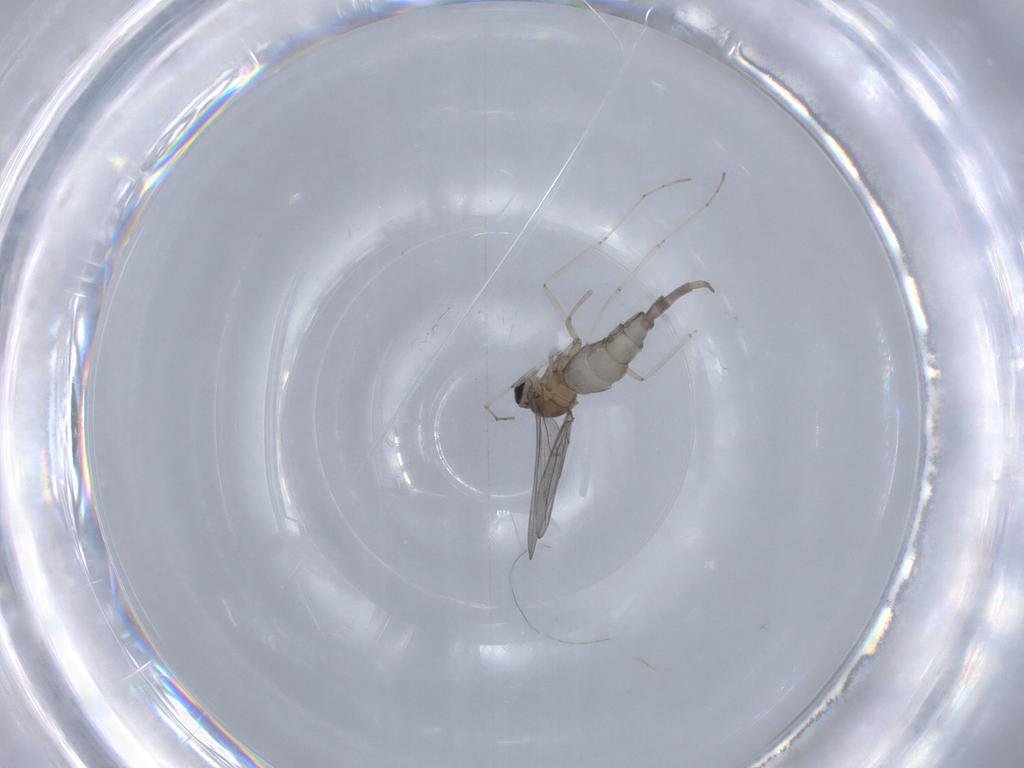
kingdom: Animalia
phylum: Arthropoda
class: Insecta
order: Diptera
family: Cecidomyiidae
